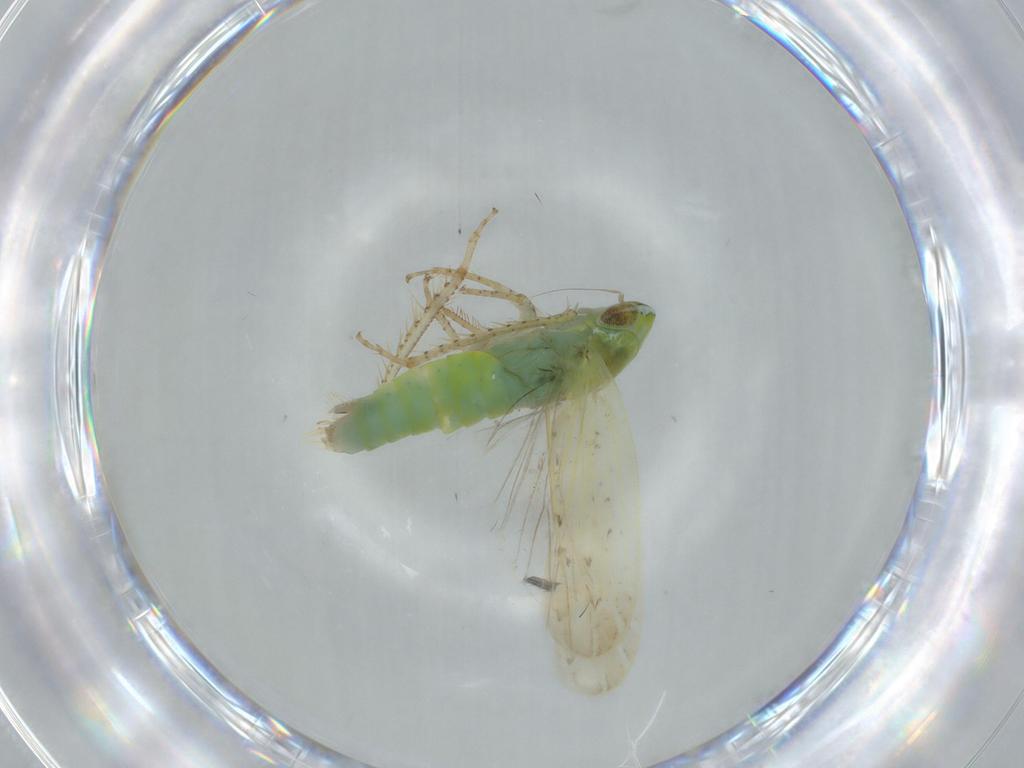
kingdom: Animalia
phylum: Arthropoda
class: Insecta
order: Hemiptera
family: Cicadellidae
